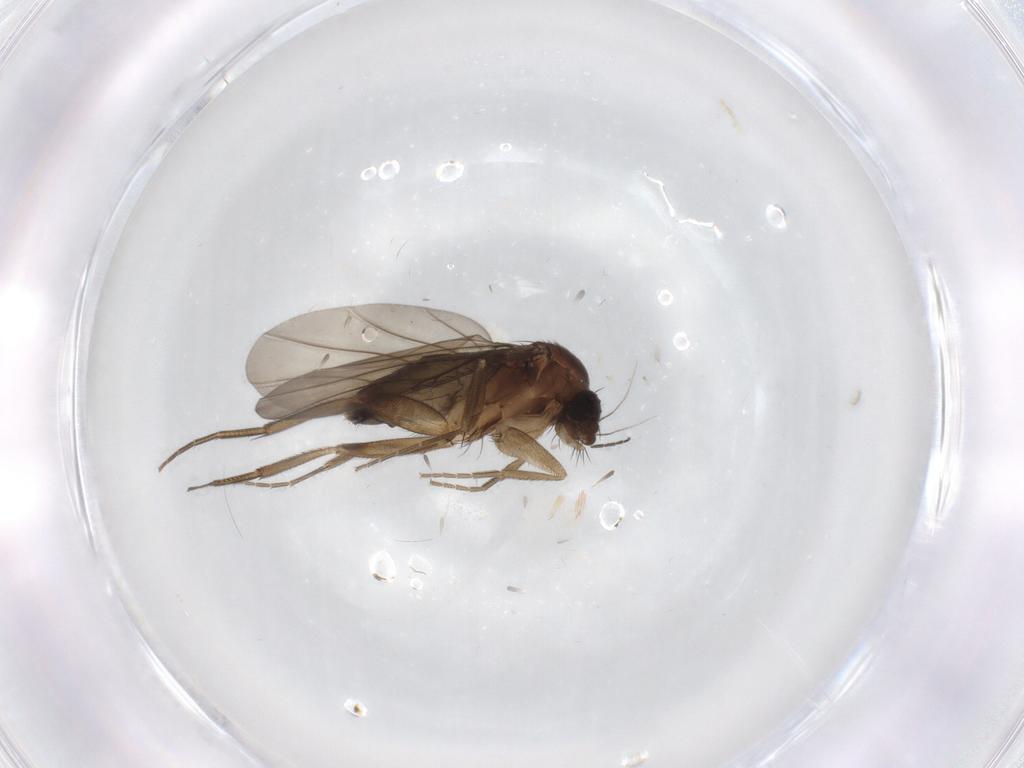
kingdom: Animalia
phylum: Arthropoda
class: Insecta
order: Diptera
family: Phoridae
